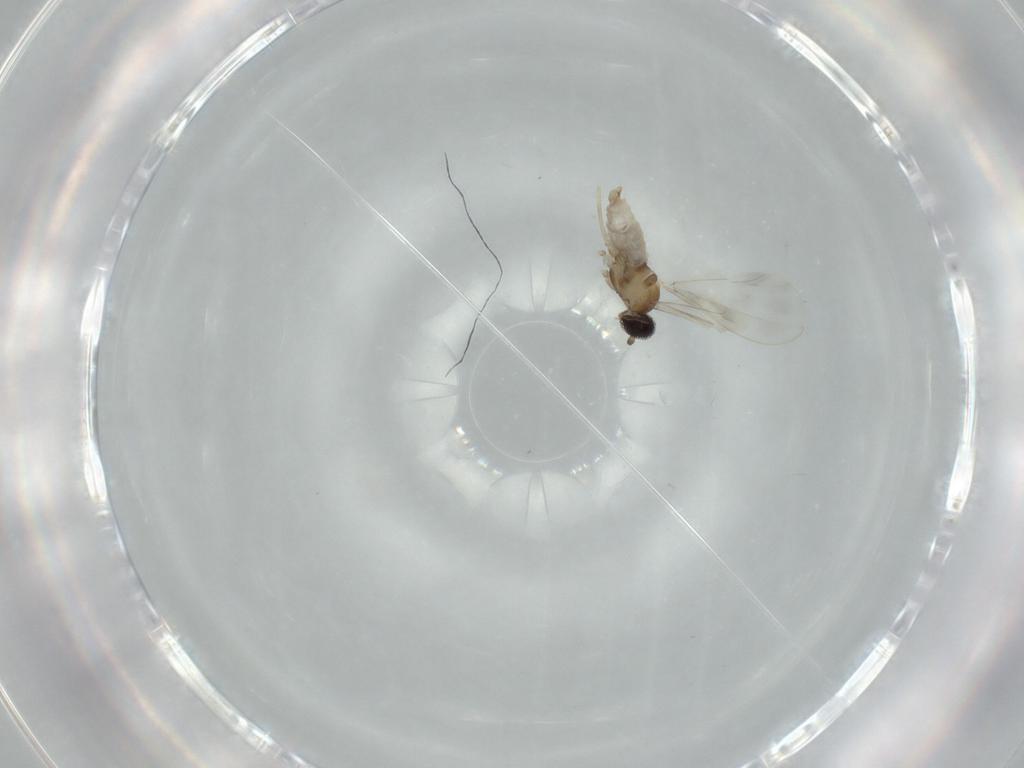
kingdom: Animalia
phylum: Arthropoda
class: Insecta
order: Diptera
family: Cecidomyiidae
